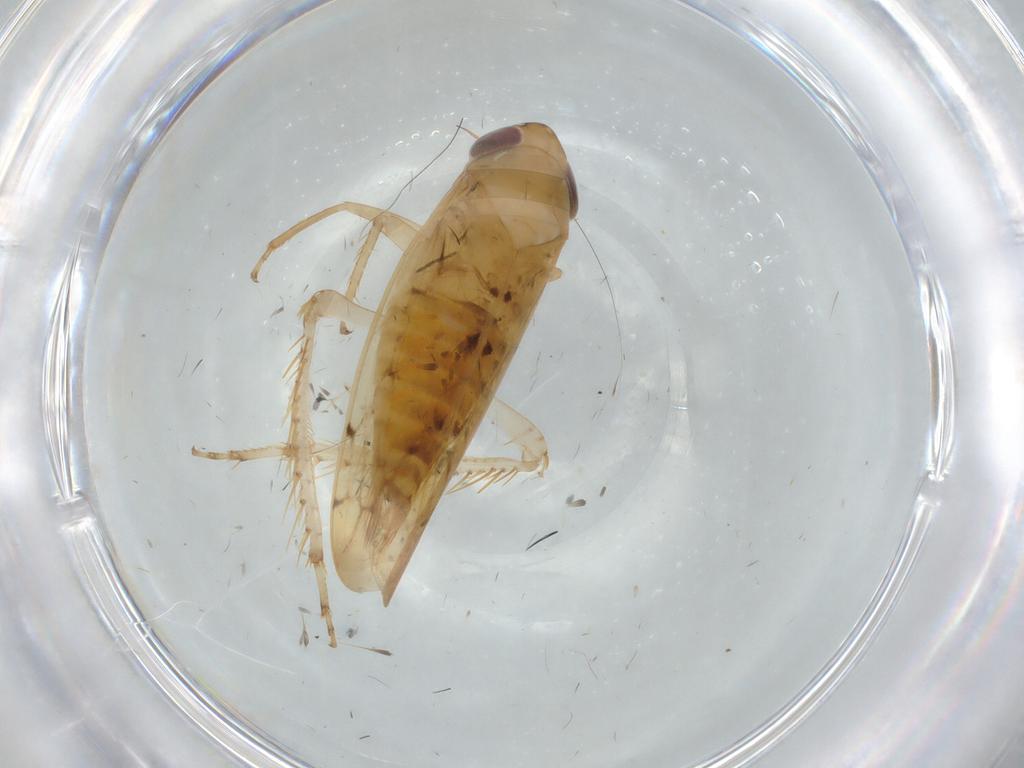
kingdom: Animalia
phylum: Arthropoda
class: Insecta
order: Hemiptera
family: Cicadellidae
